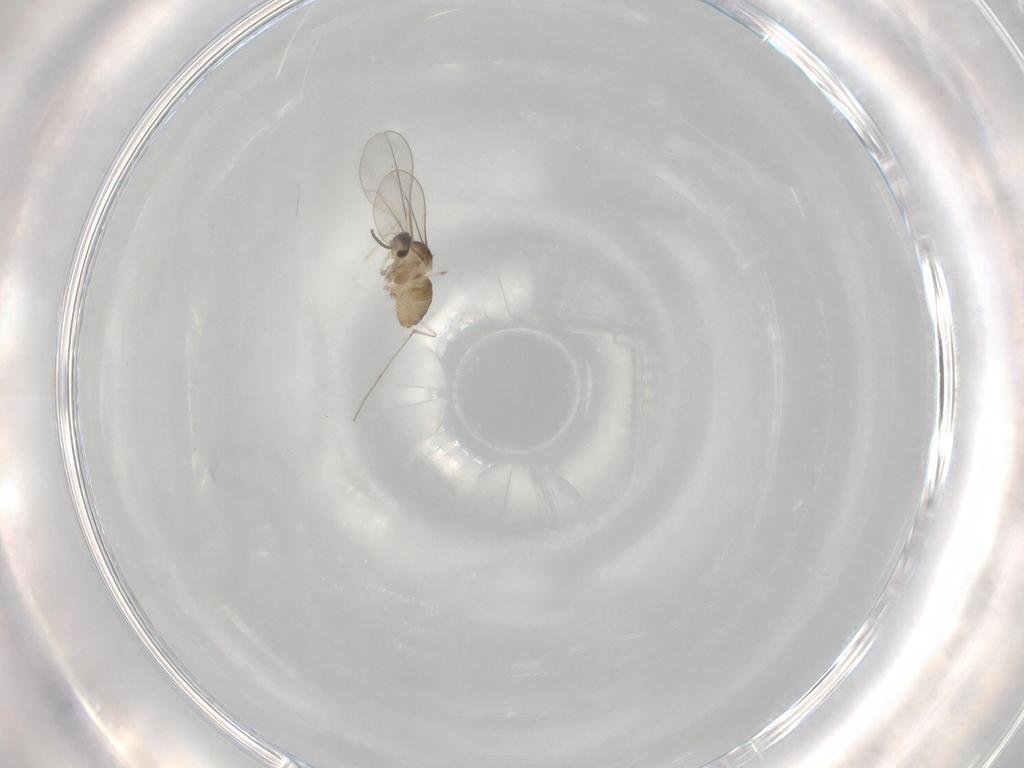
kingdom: Animalia
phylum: Arthropoda
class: Insecta
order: Diptera
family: Cecidomyiidae
